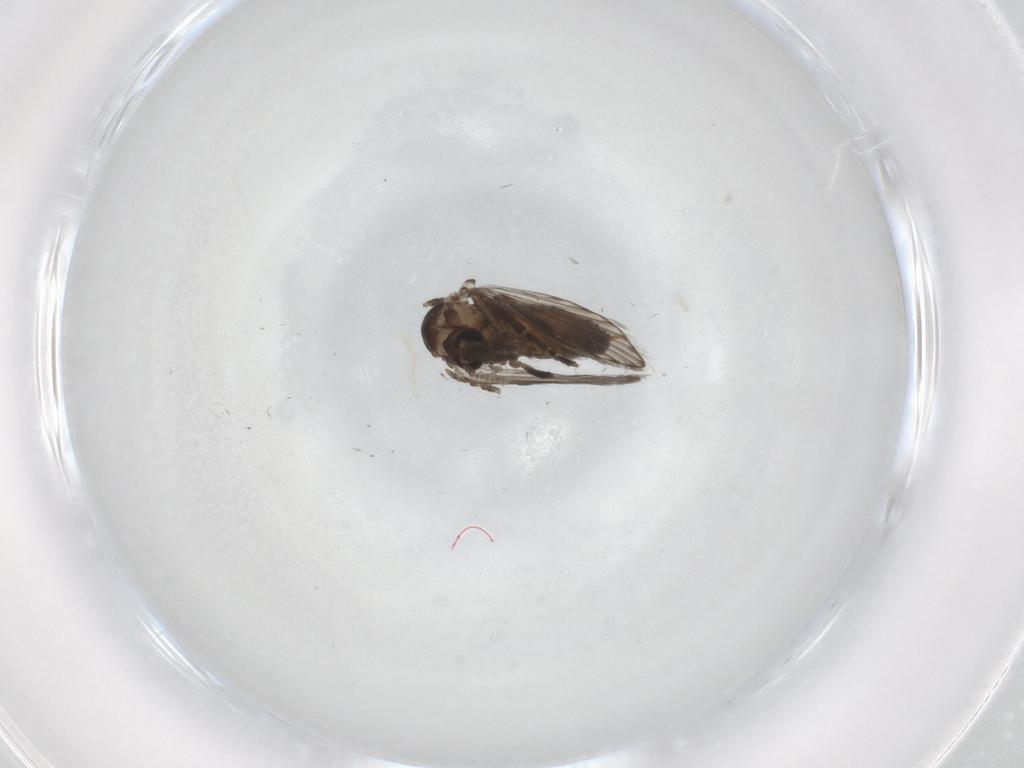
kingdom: Animalia
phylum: Arthropoda
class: Insecta
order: Diptera
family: Psychodidae
